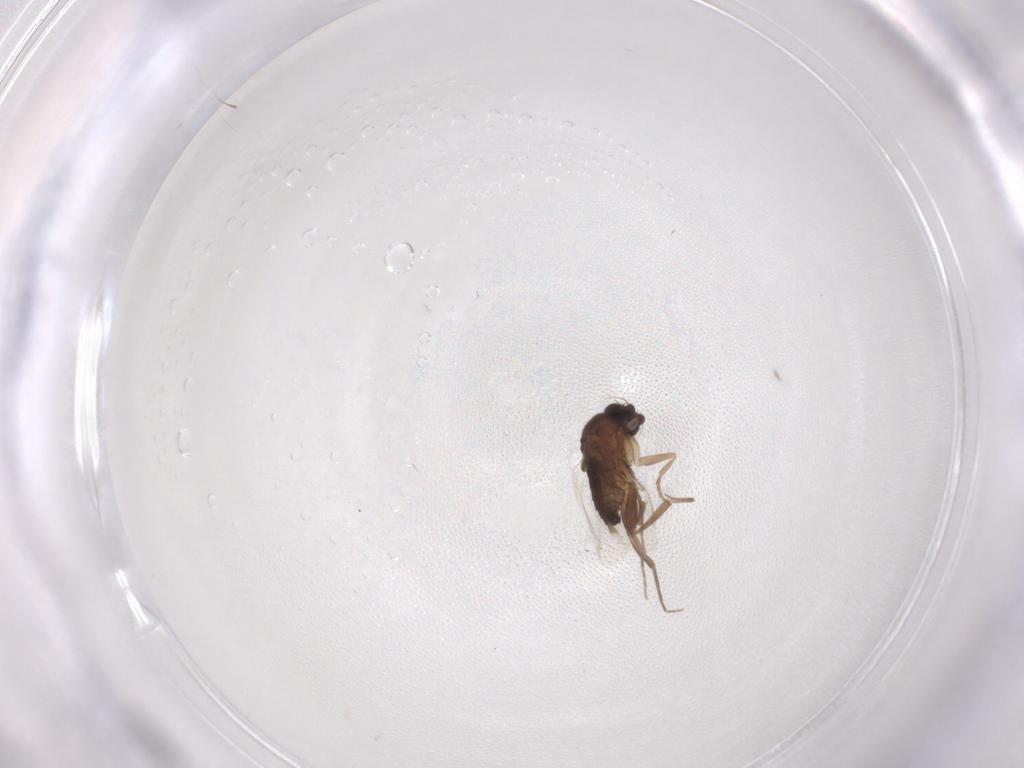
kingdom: Animalia
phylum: Arthropoda
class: Insecta
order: Diptera
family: Phoridae
